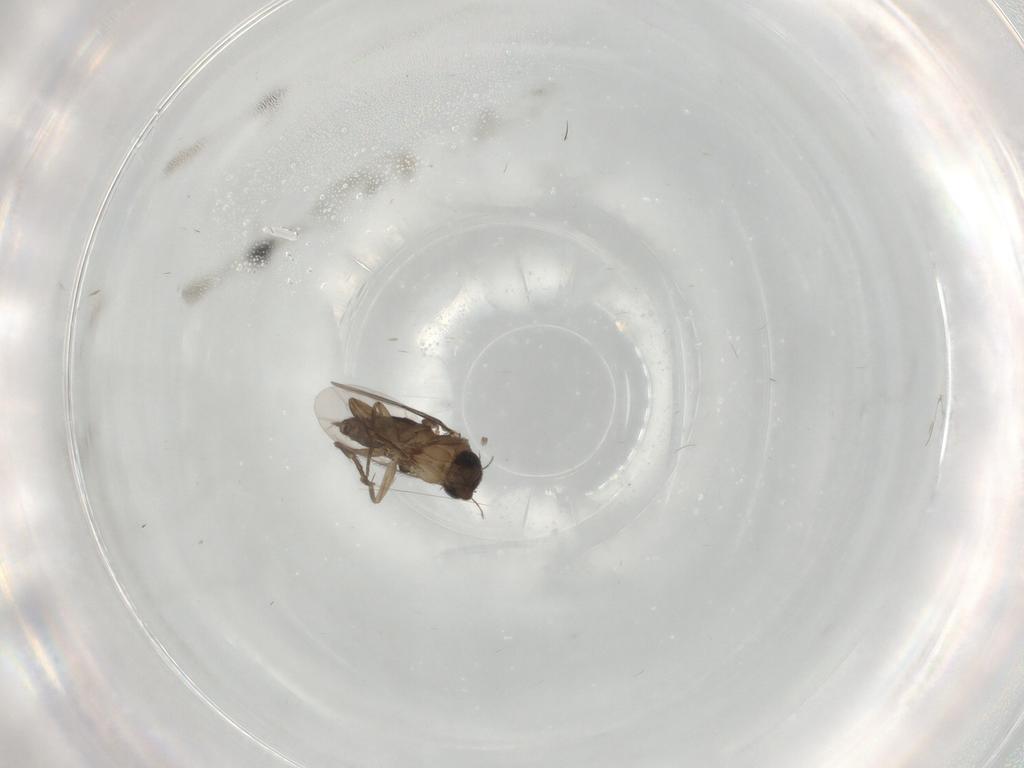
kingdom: Animalia
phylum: Arthropoda
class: Insecta
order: Diptera
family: Phoridae
